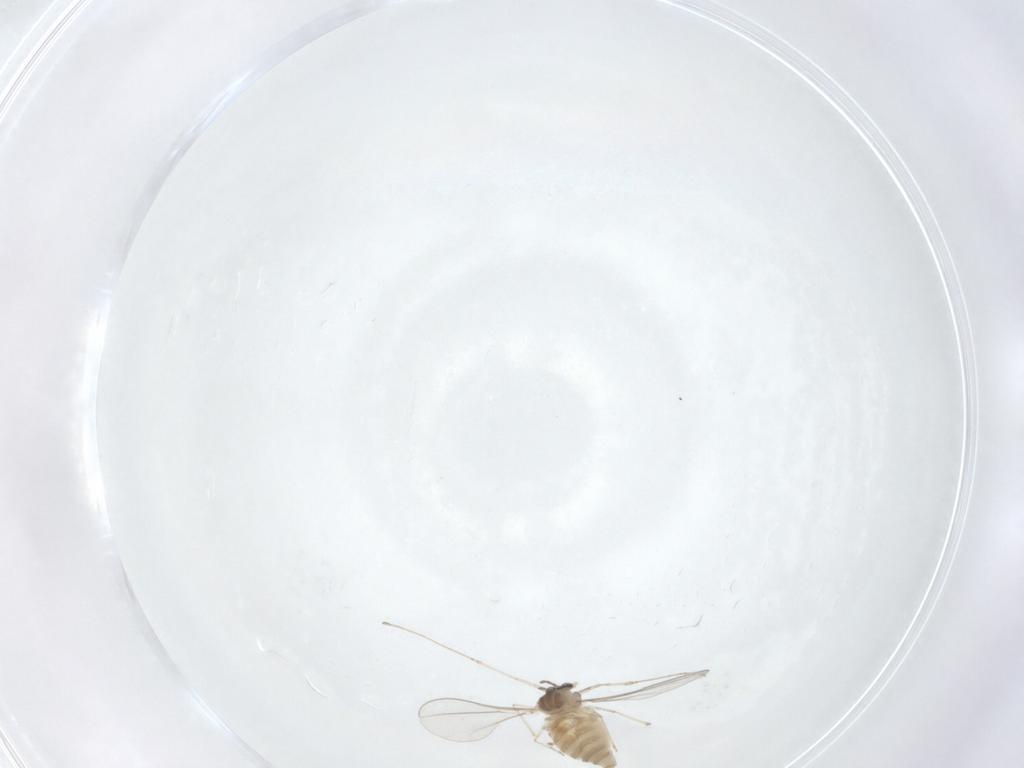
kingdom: Animalia
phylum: Arthropoda
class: Insecta
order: Diptera
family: Cecidomyiidae
